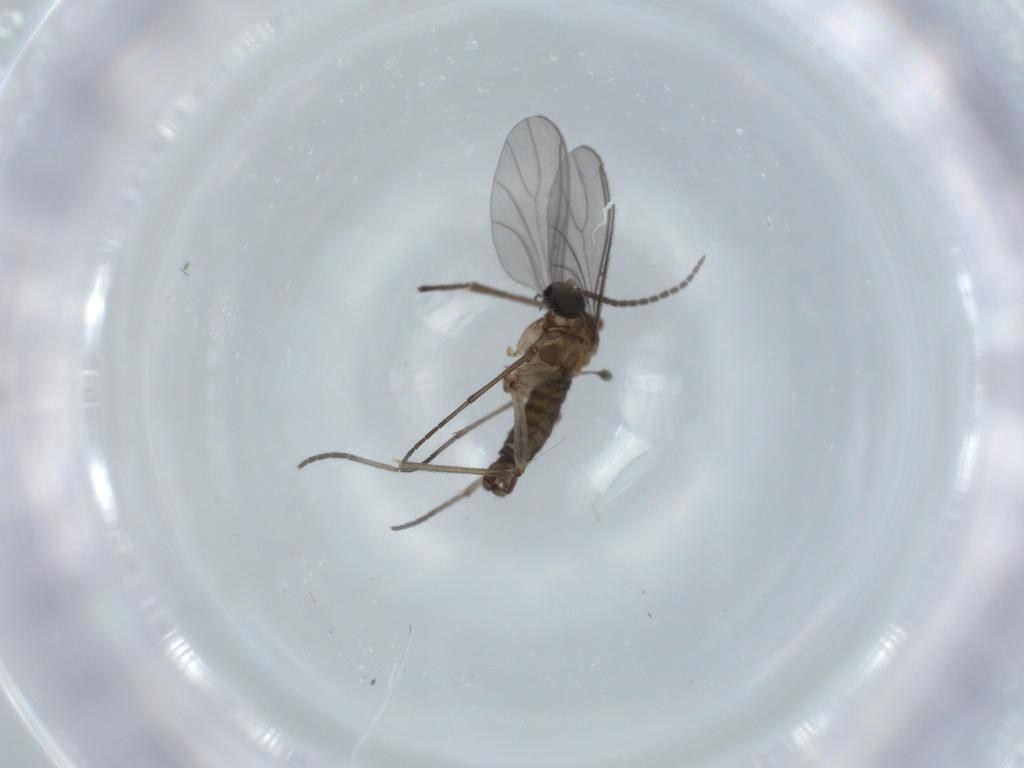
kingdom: Animalia
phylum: Arthropoda
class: Insecta
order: Diptera
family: Sciaridae
